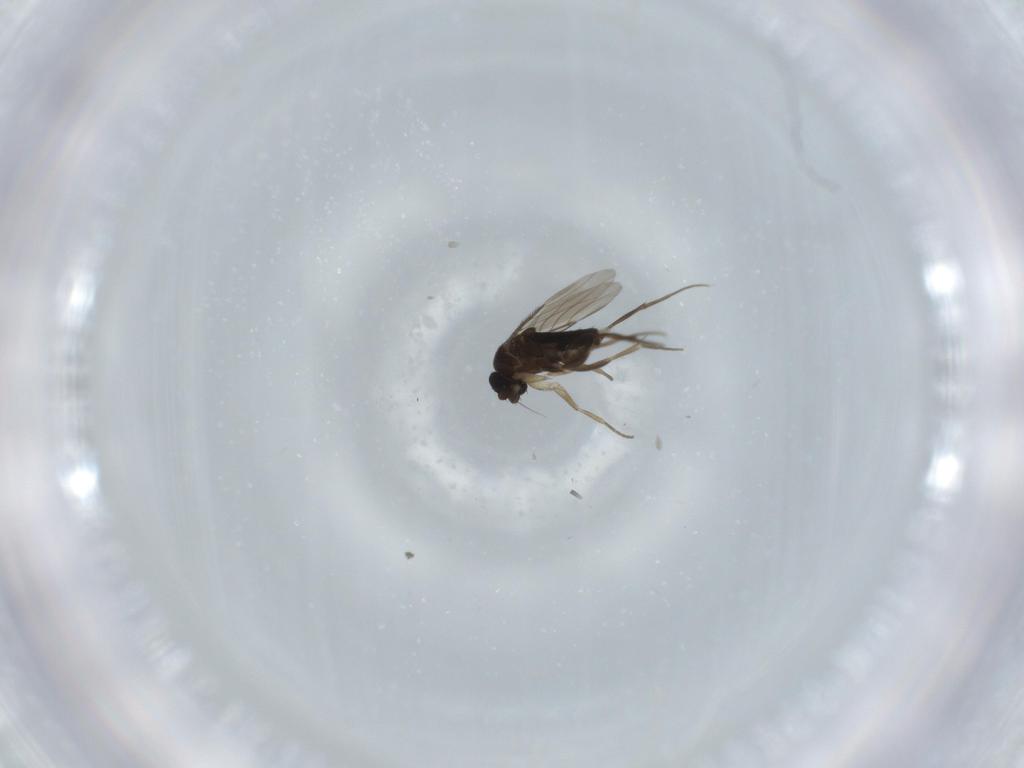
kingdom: Animalia
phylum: Arthropoda
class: Insecta
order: Diptera
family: Phoridae
